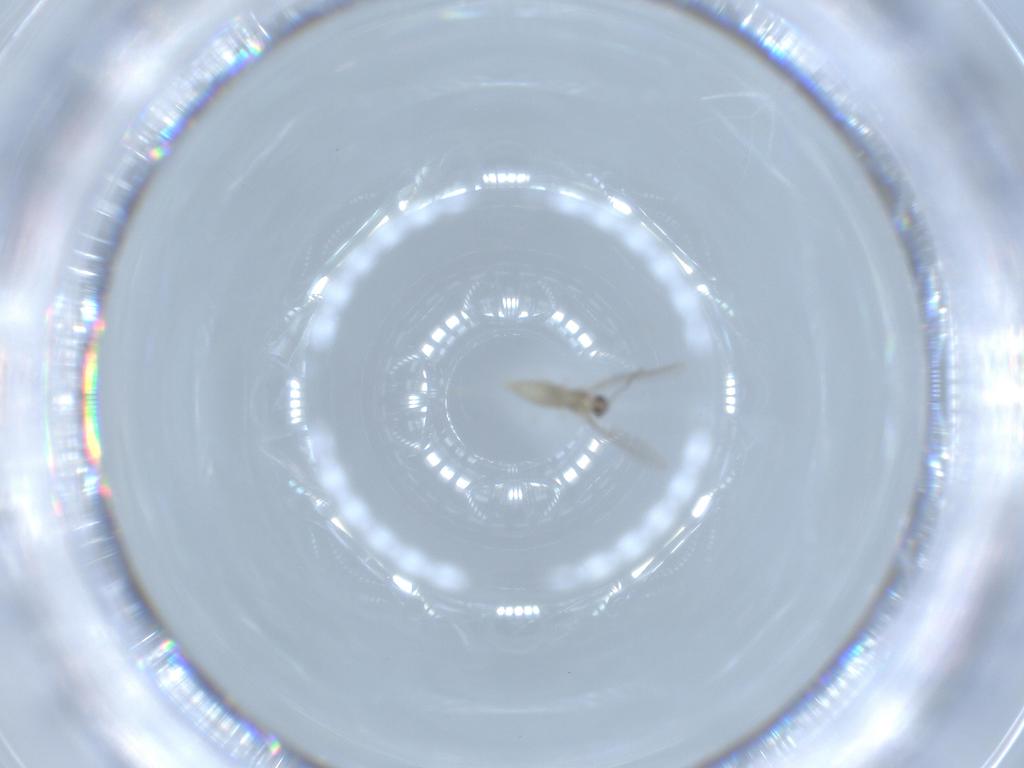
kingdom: Animalia
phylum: Arthropoda
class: Insecta
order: Diptera
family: Cecidomyiidae
